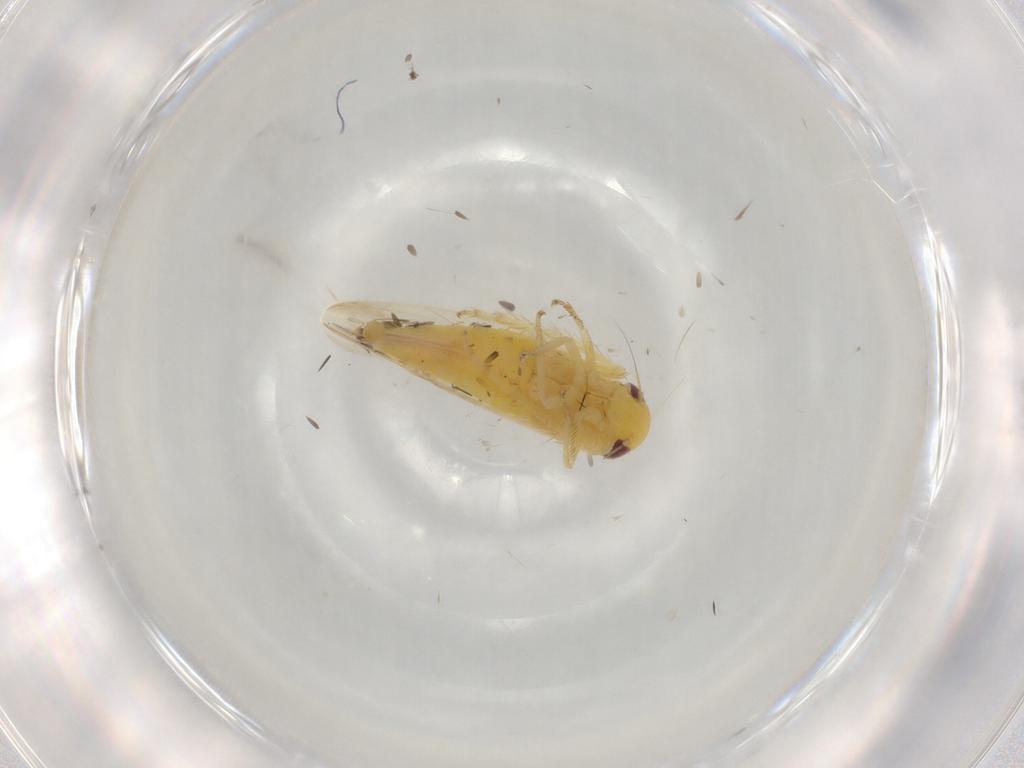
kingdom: Animalia
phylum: Arthropoda
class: Insecta
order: Hemiptera
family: Cicadellidae
